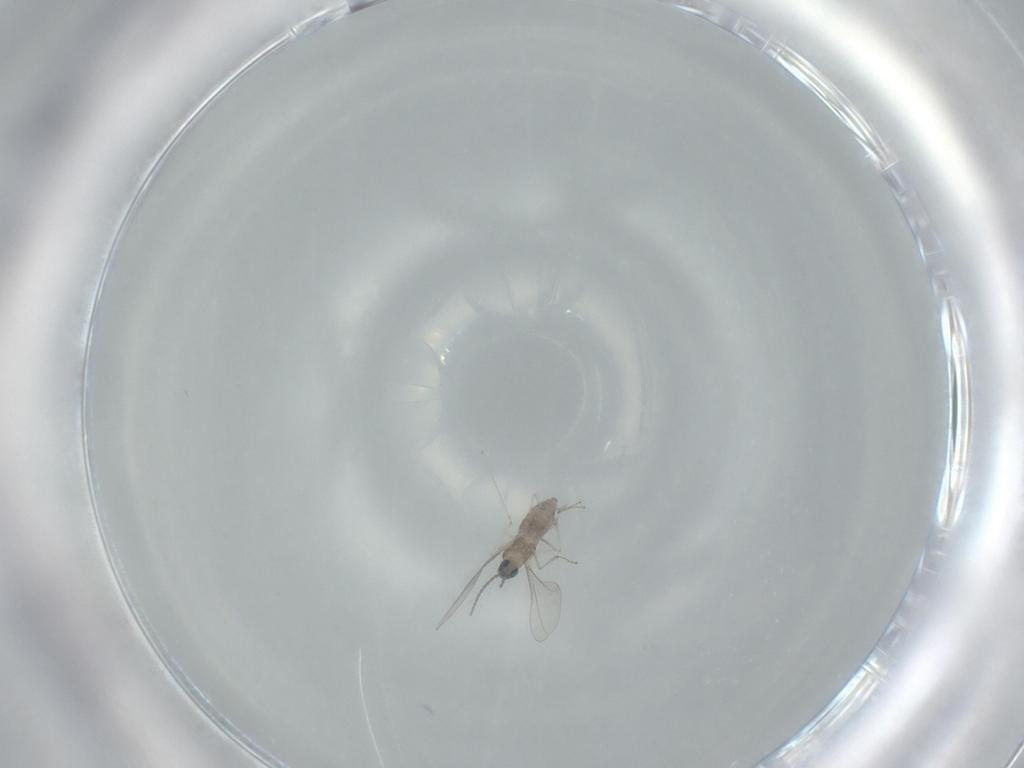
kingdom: Animalia
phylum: Arthropoda
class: Insecta
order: Diptera
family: Cecidomyiidae
